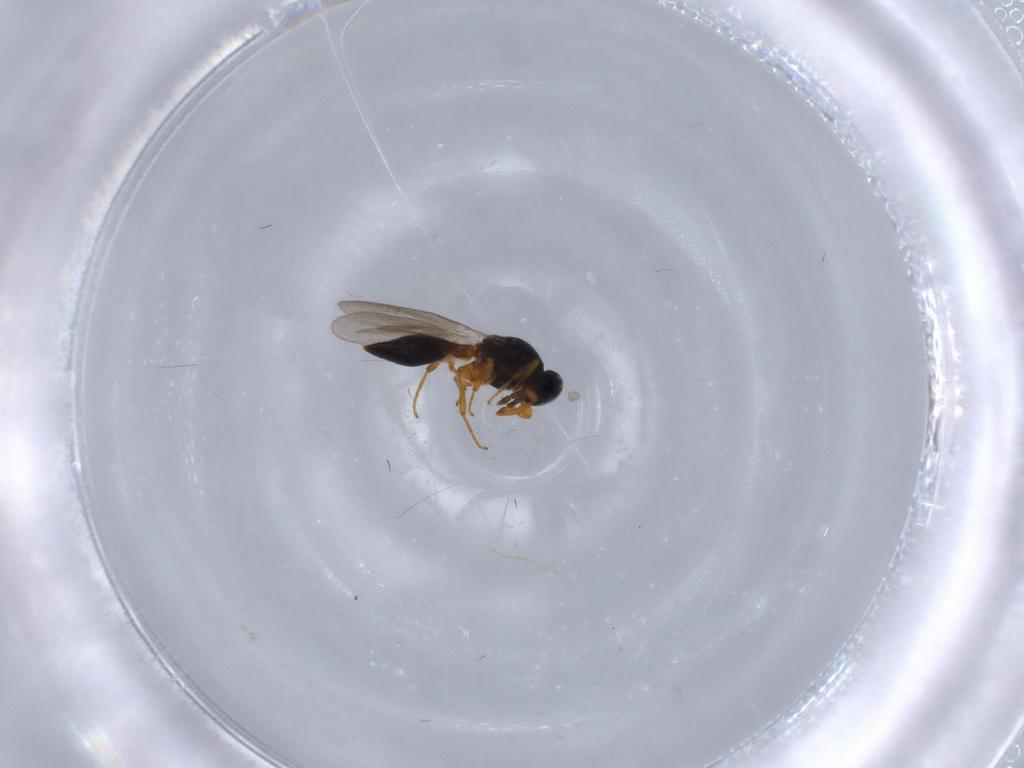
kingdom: Animalia
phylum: Arthropoda
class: Insecta
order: Hymenoptera
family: Platygastridae
